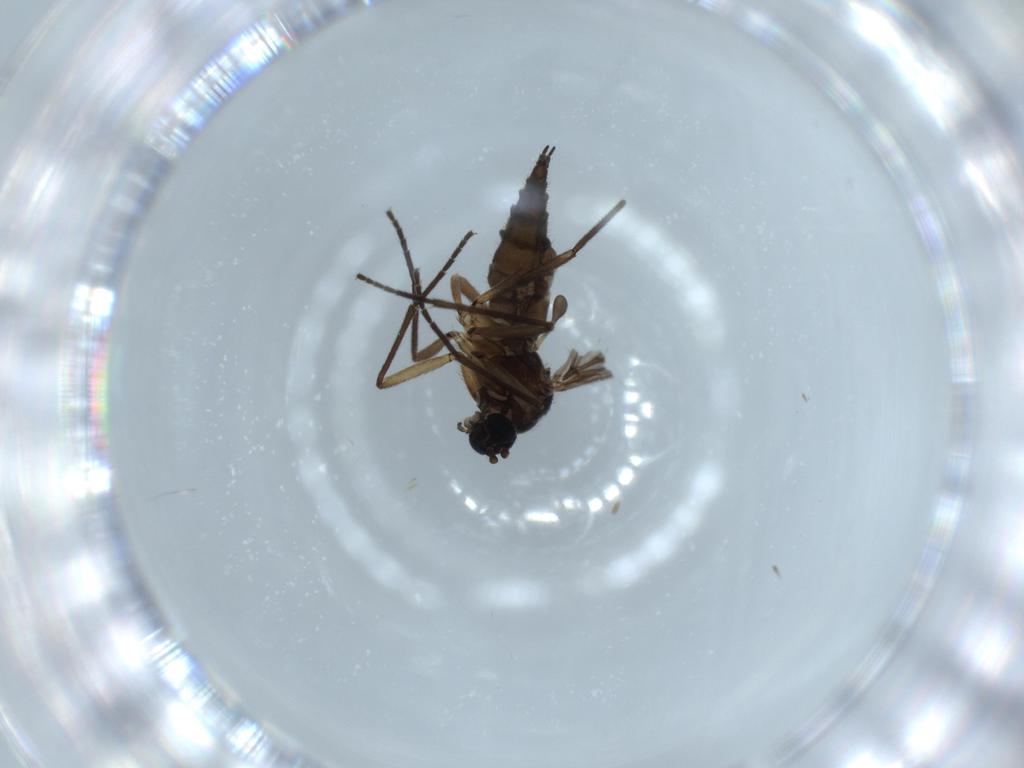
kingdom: Animalia
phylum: Arthropoda
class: Insecta
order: Diptera
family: Sciaridae
